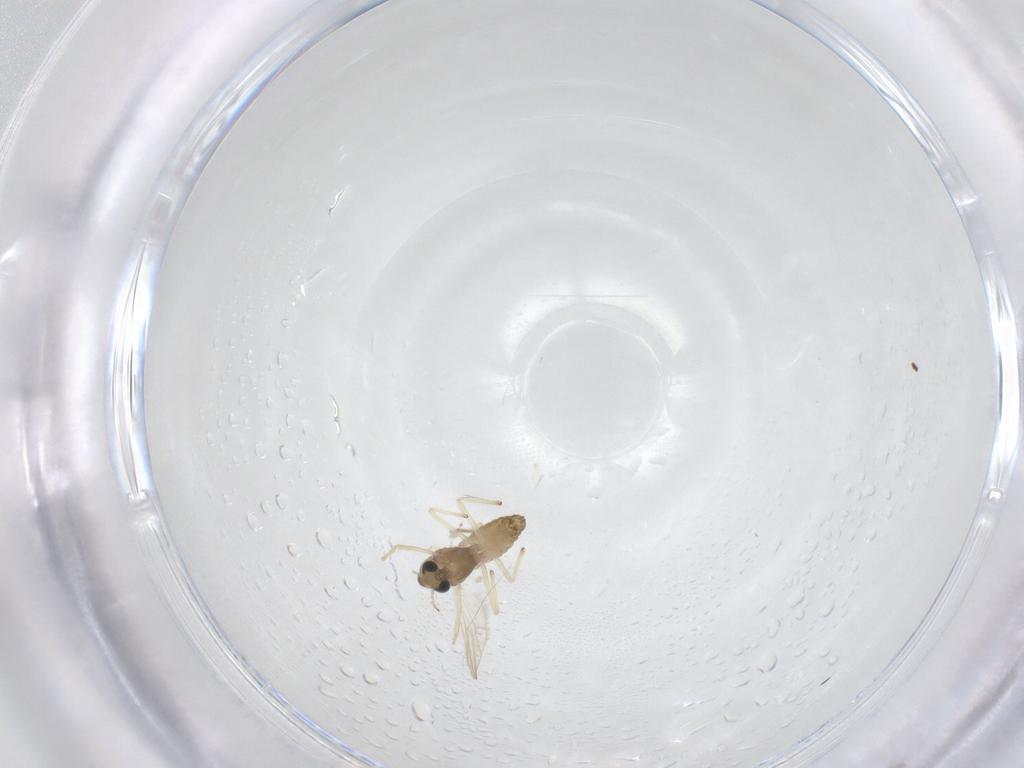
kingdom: Animalia
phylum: Arthropoda
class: Insecta
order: Diptera
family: Chironomidae
